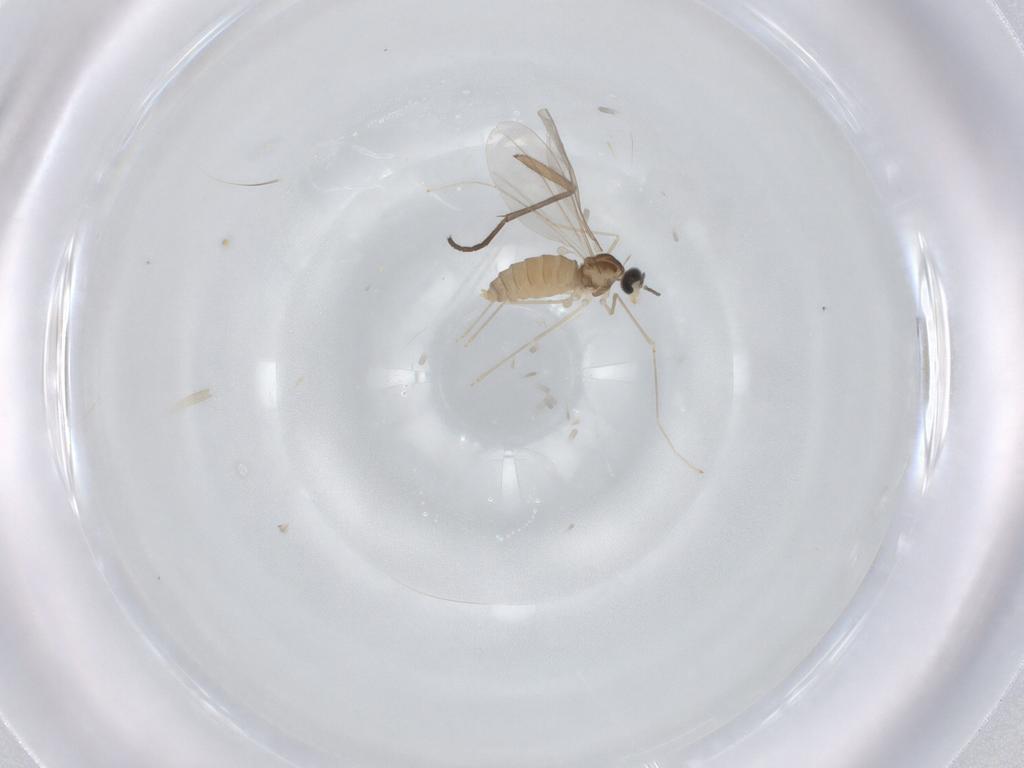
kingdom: Animalia
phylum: Arthropoda
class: Insecta
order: Diptera
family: Cecidomyiidae
